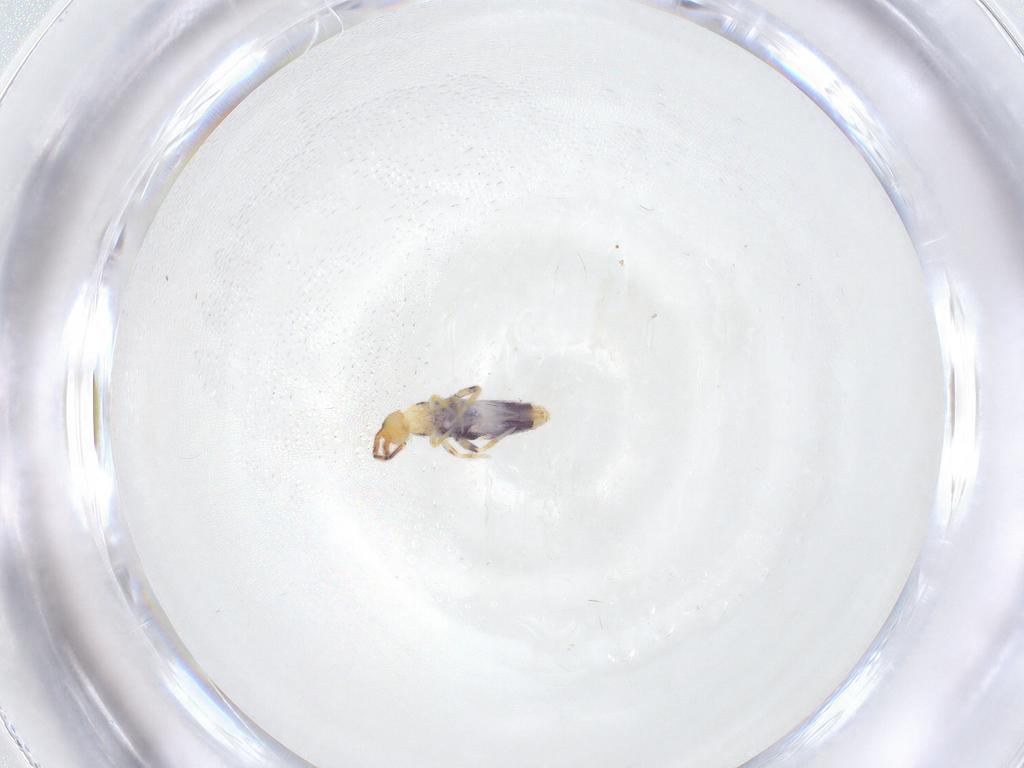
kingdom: Animalia
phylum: Arthropoda
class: Collembola
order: Entomobryomorpha
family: Entomobryidae
